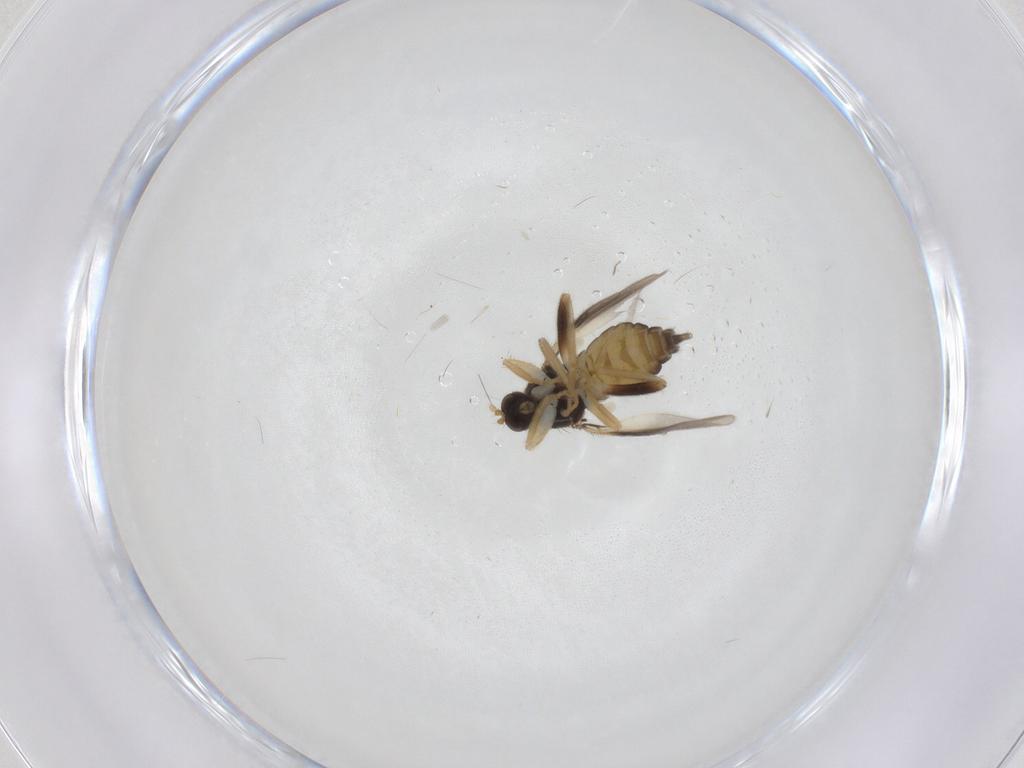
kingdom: Animalia
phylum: Arthropoda
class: Insecta
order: Diptera
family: Hybotidae
